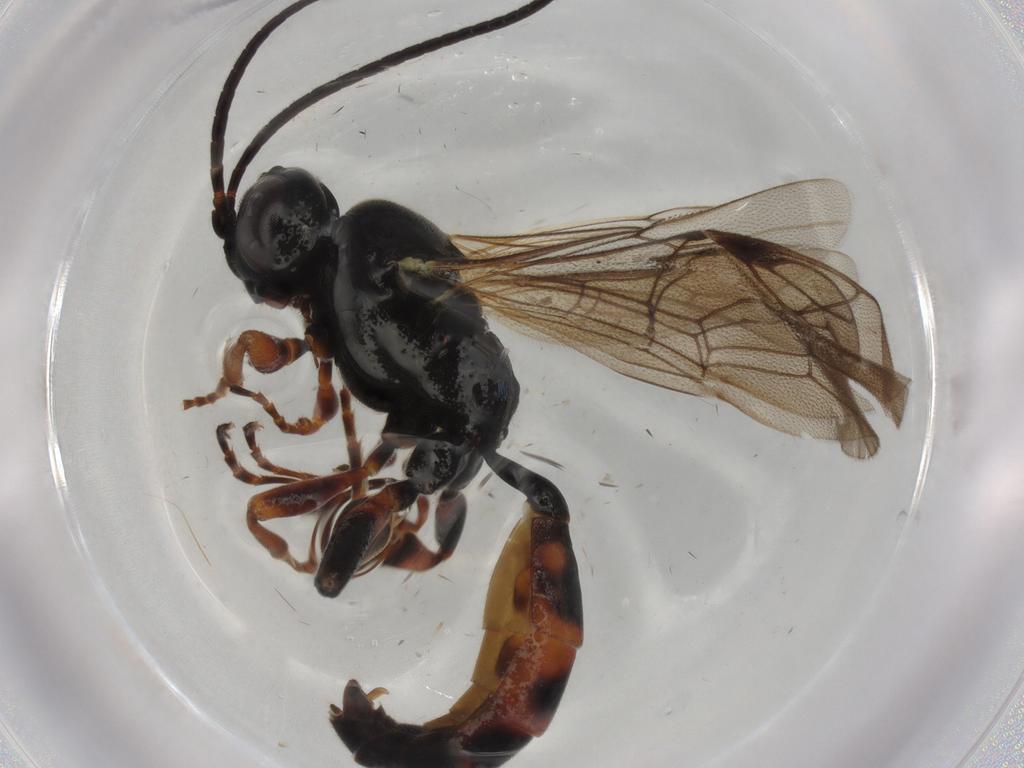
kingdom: Animalia
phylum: Arthropoda
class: Insecta
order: Hymenoptera
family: Ichneumonidae
